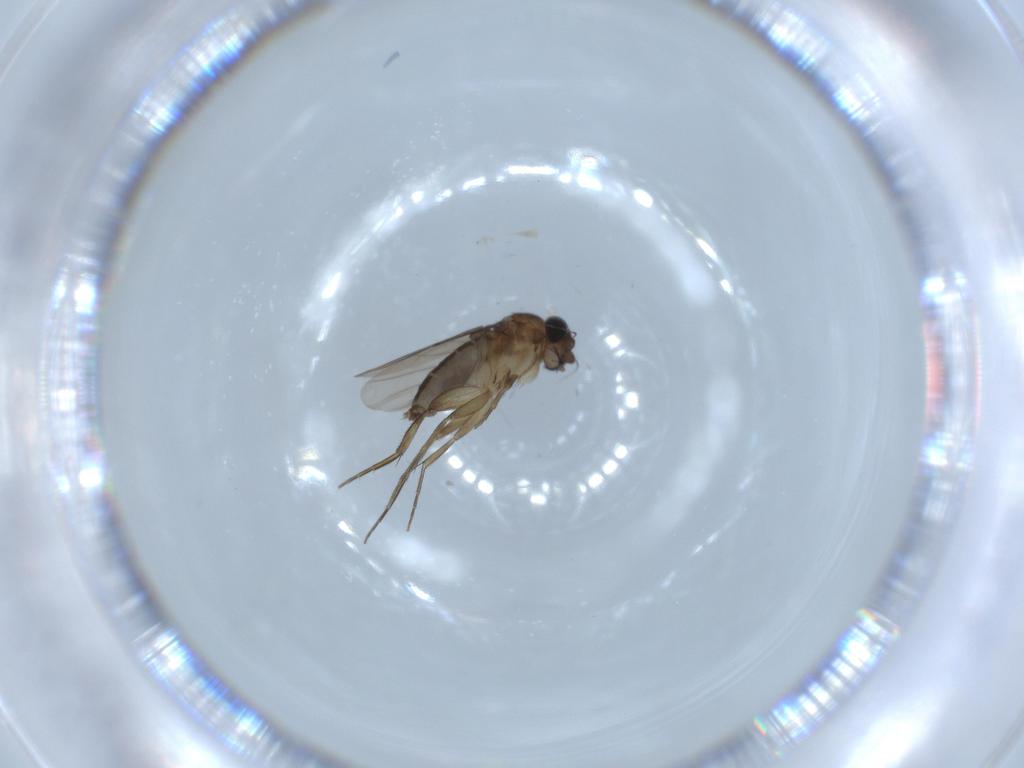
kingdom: Animalia
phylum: Arthropoda
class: Insecta
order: Diptera
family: Phoridae
